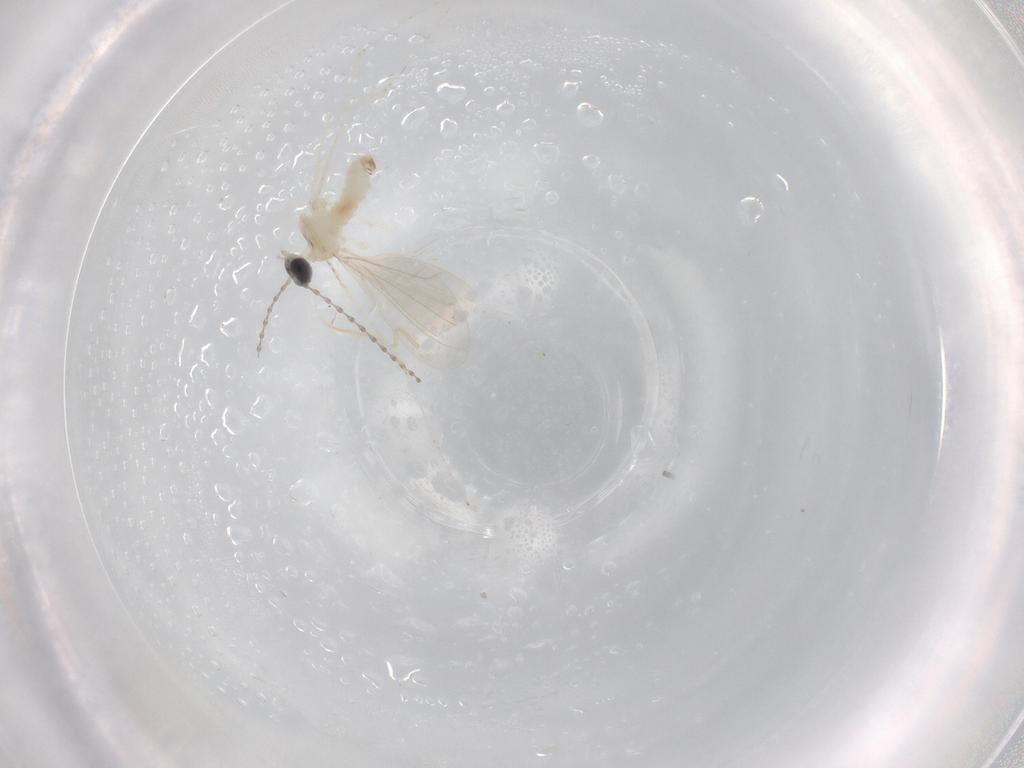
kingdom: Animalia
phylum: Arthropoda
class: Insecta
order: Diptera
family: Cecidomyiidae
